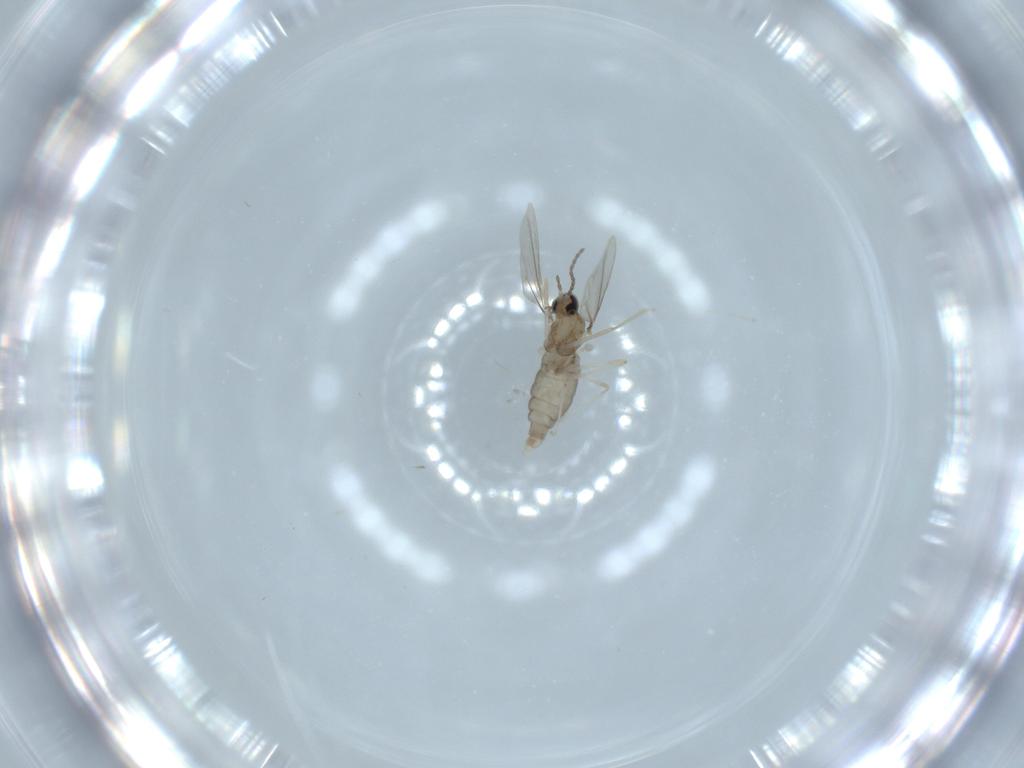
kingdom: Animalia
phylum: Arthropoda
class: Insecta
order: Diptera
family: Cecidomyiidae
